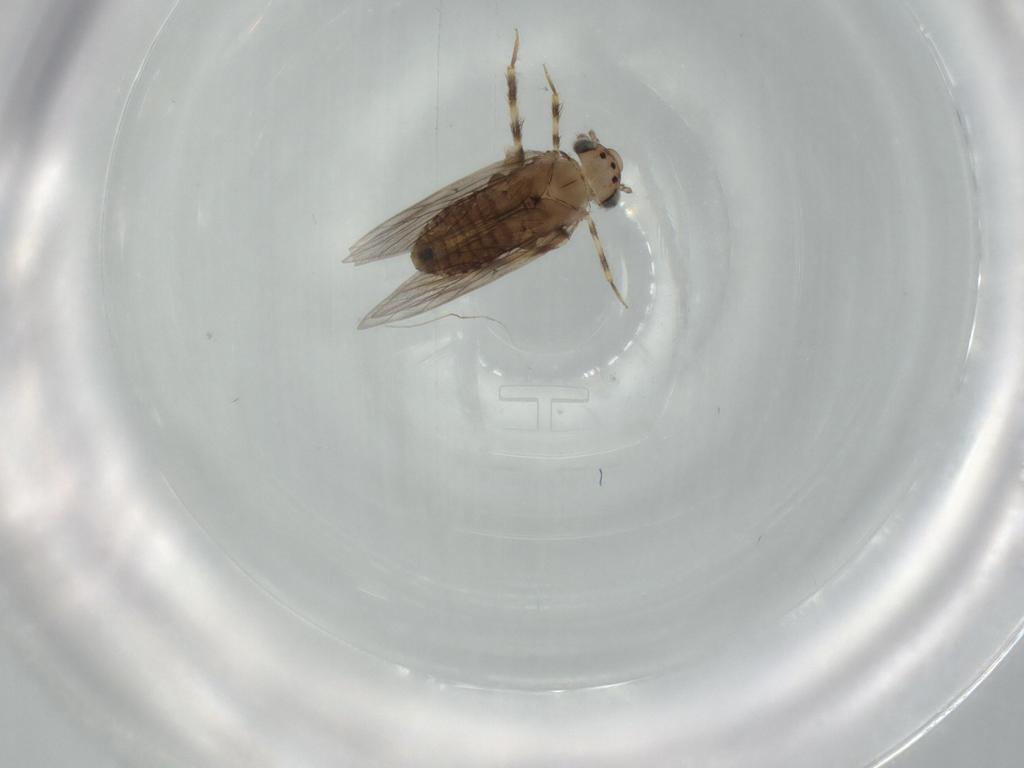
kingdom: Animalia
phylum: Arthropoda
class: Insecta
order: Psocodea
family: Lepidopsocidae
